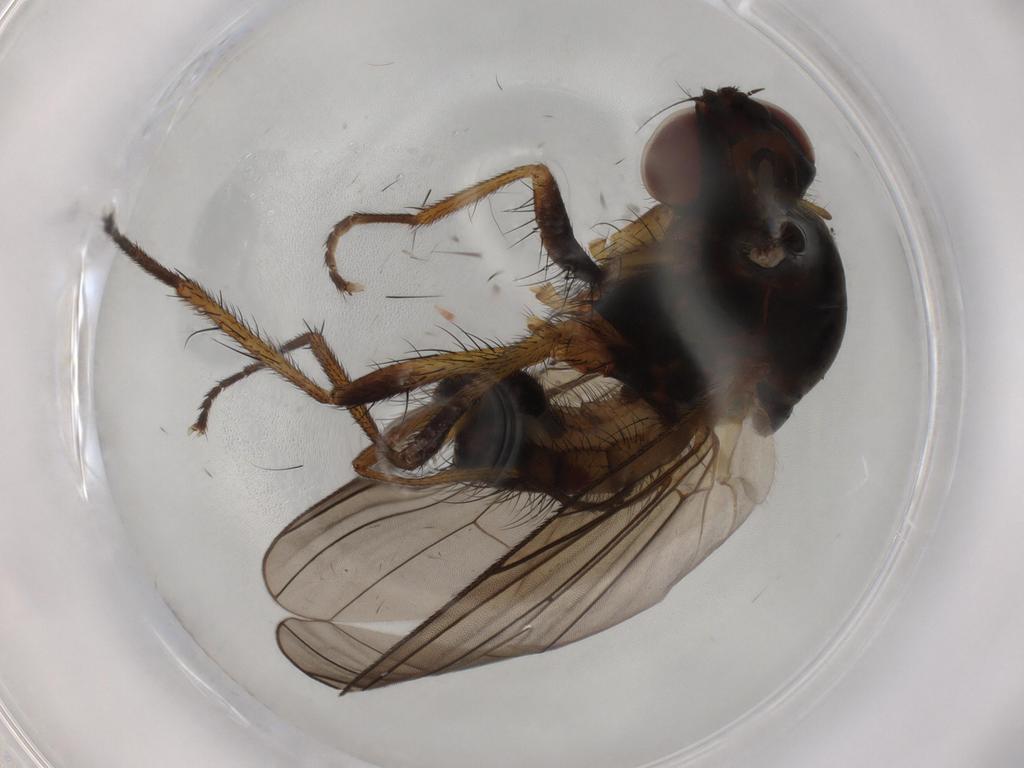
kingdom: Animalia
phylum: Arthropoda
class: Insecta
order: Diptera
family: Anthomyiidae
